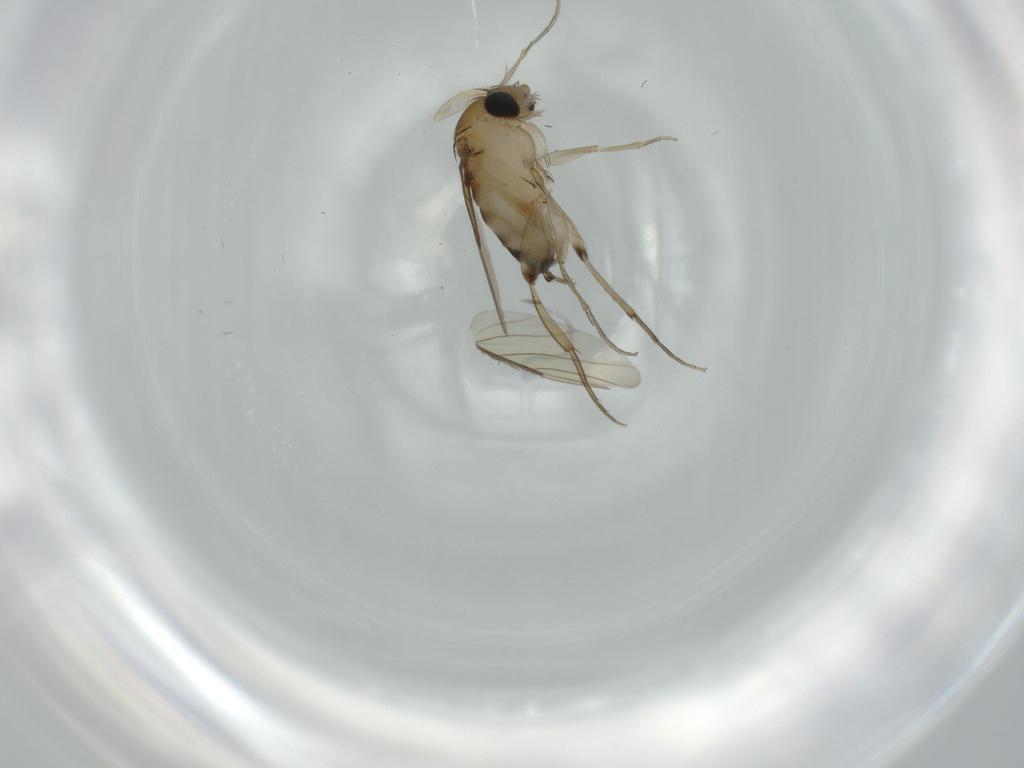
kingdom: Animalia
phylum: Arthropoda
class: Insecta
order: Diptera
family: Phoridae
